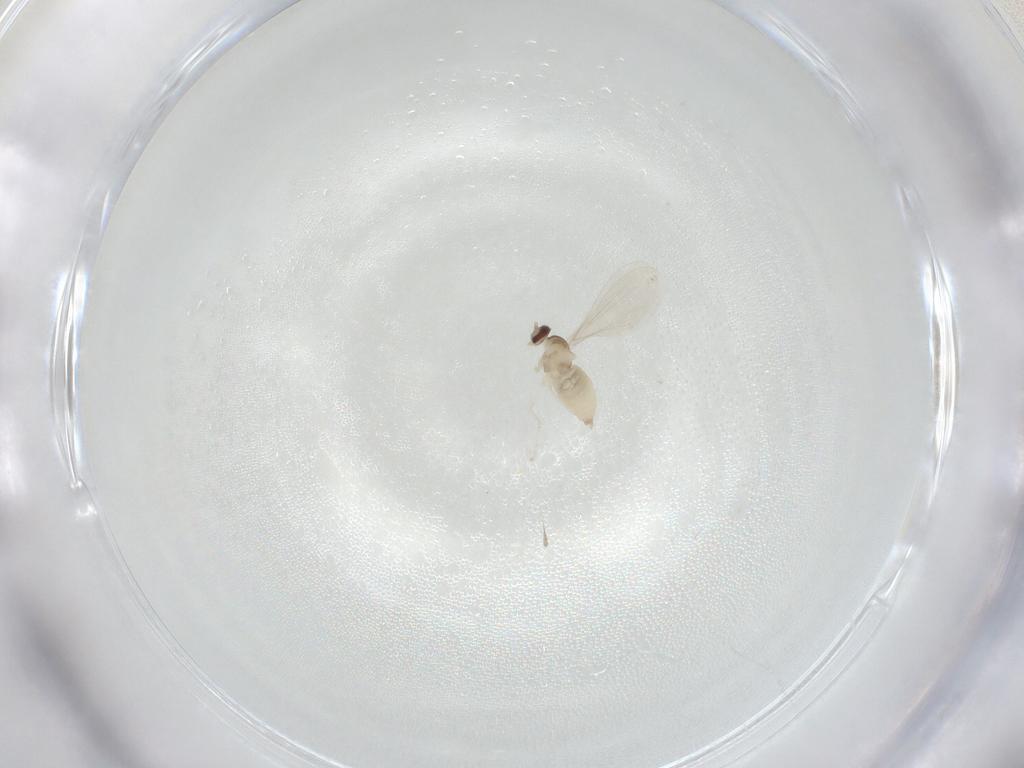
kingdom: Animalia
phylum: Arthropoda
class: Insecta
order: Diptera
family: Cecidomyiidae
